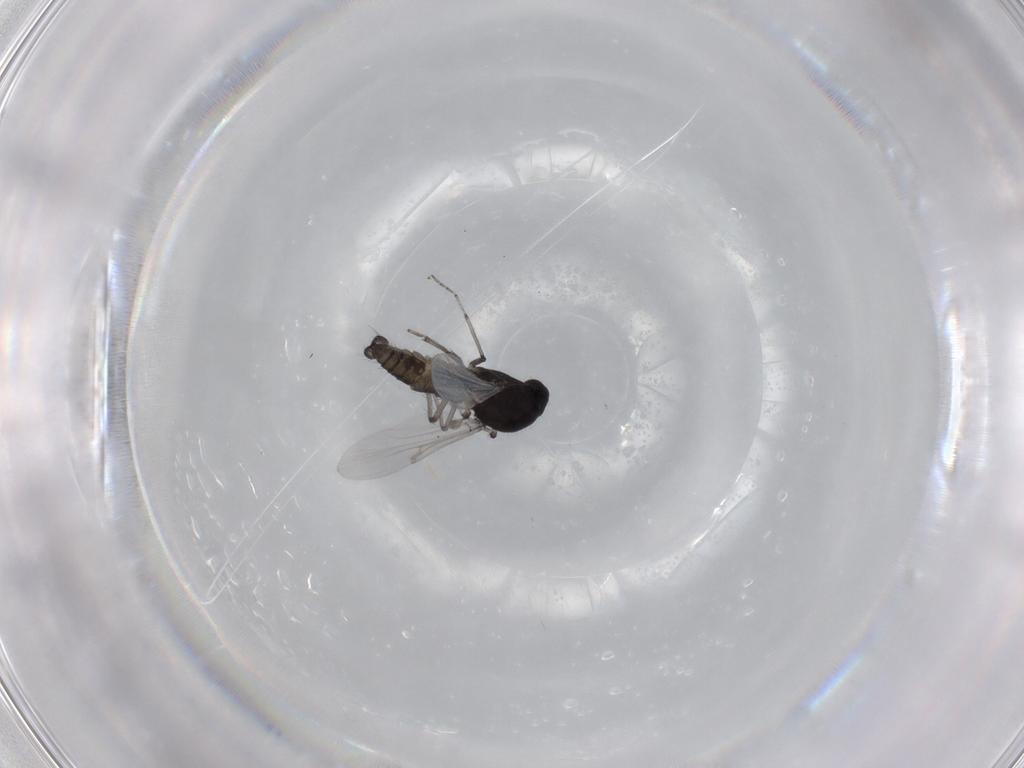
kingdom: Animalia
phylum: Arthropoda
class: Insecta
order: Diptera
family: Ceratopogonidae
